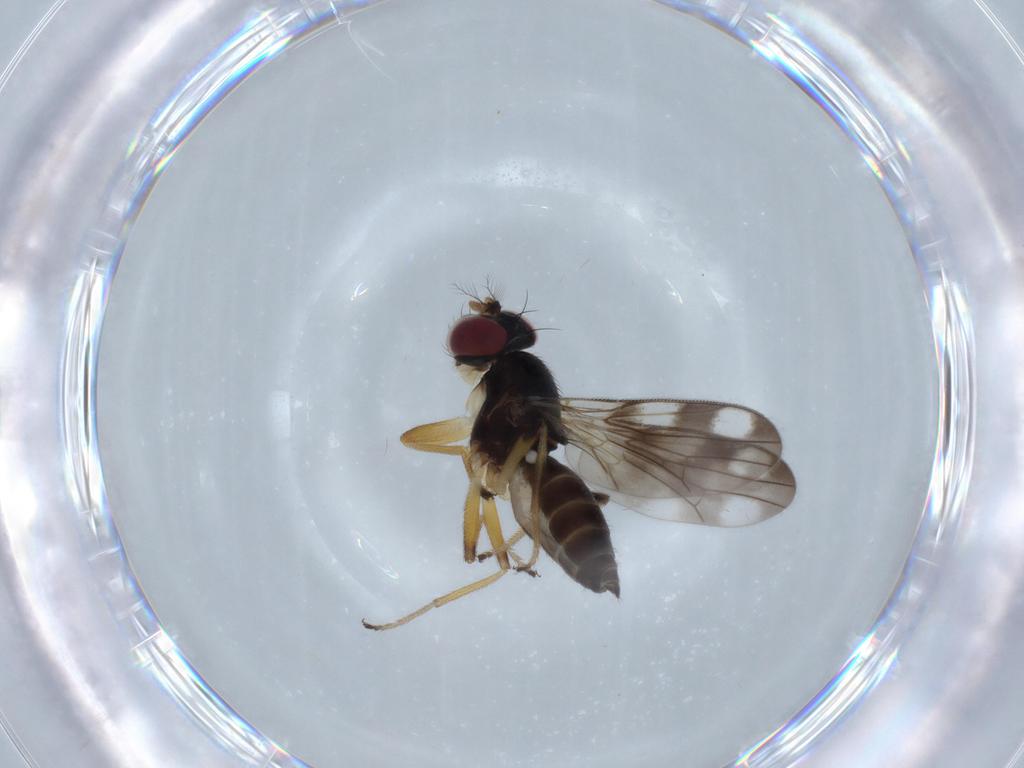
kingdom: Animalia
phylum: Arthropoda
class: Insecta
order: Diptera
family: Periscelididae
